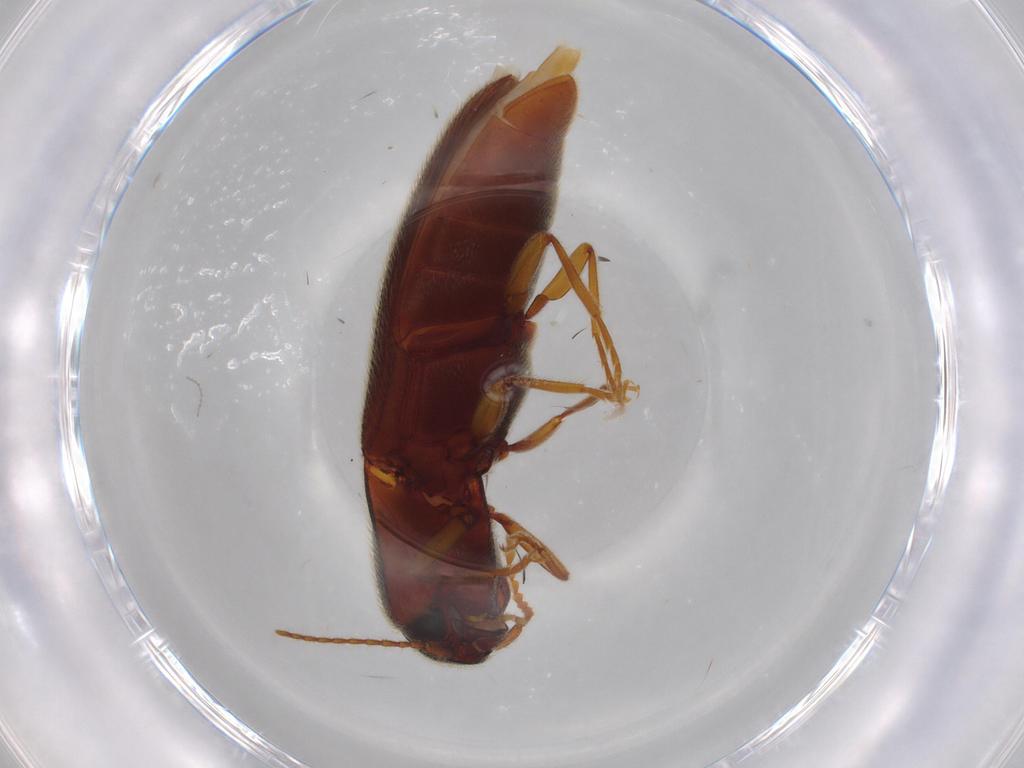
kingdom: Animalia
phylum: Arthropoda
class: Insecta
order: Coleoptera
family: Elateridae
